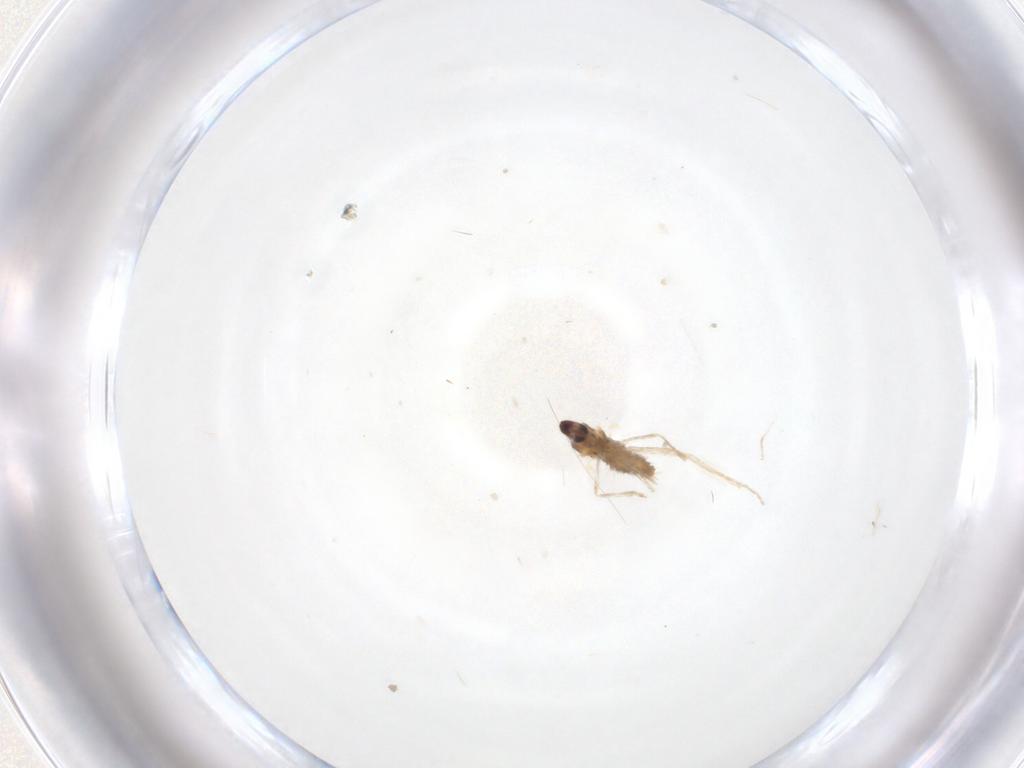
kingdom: Animalia
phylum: Arthropoda
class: Insecta
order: Diptera
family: Cecidomyiidae
